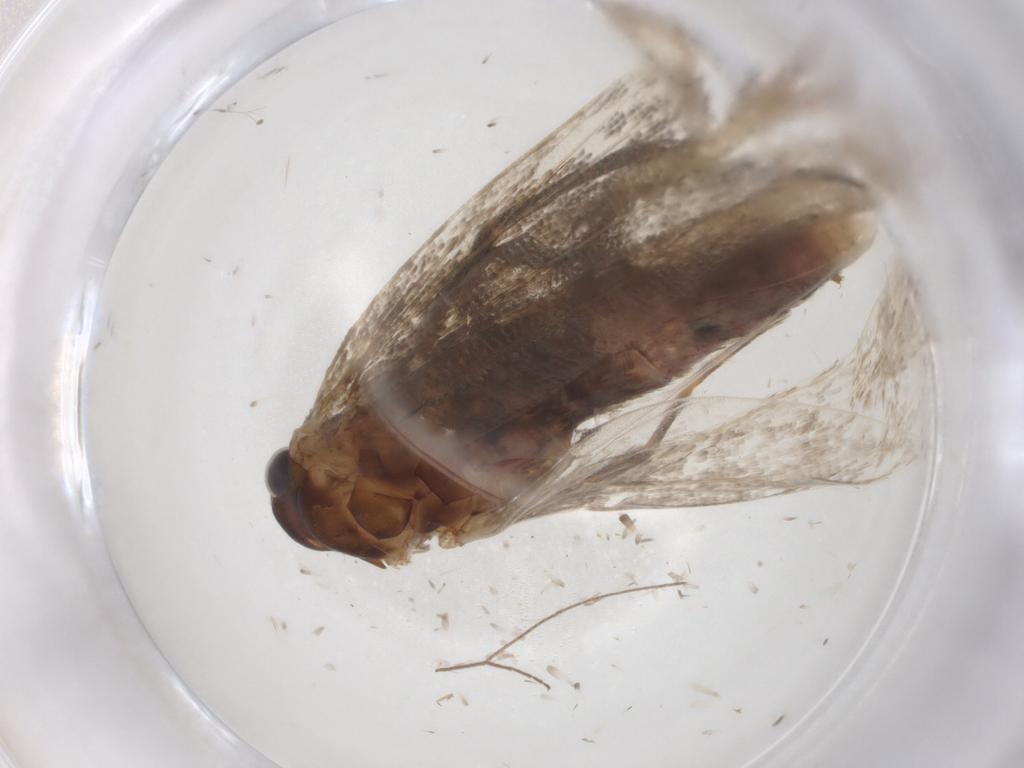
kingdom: Animalia
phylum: Arthropoda
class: Insecta
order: Lepidoptera
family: Erebidae
